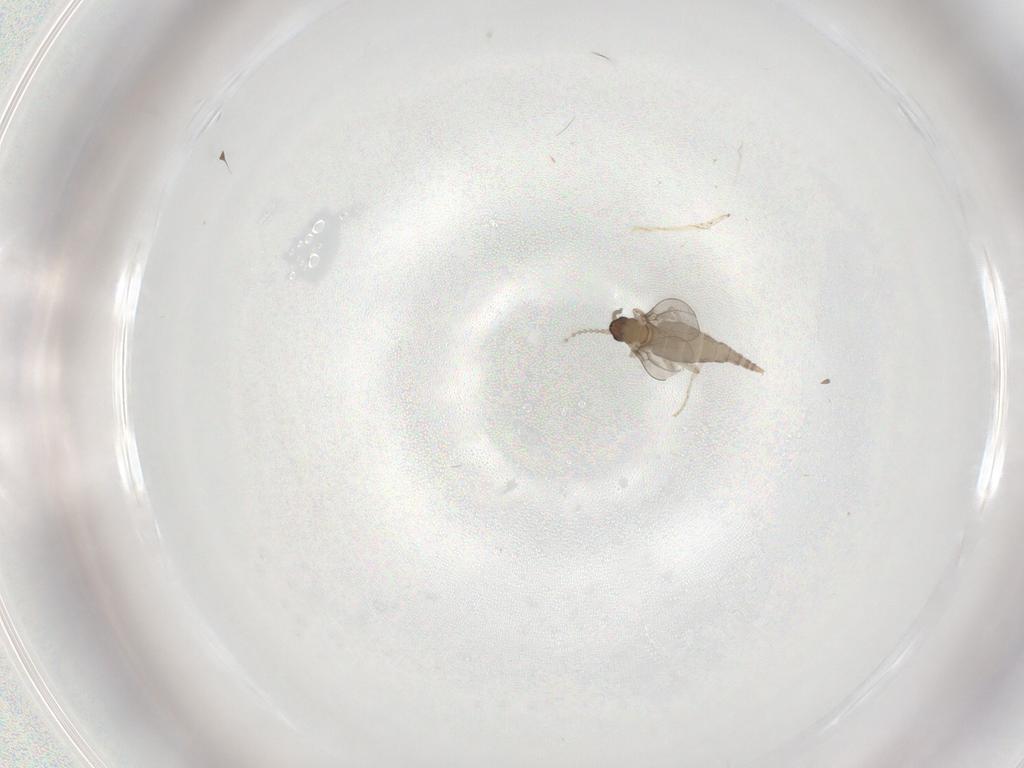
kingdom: Animalia
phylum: Arthropoda
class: Insecta
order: Diptera
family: Cecidomyiidae
